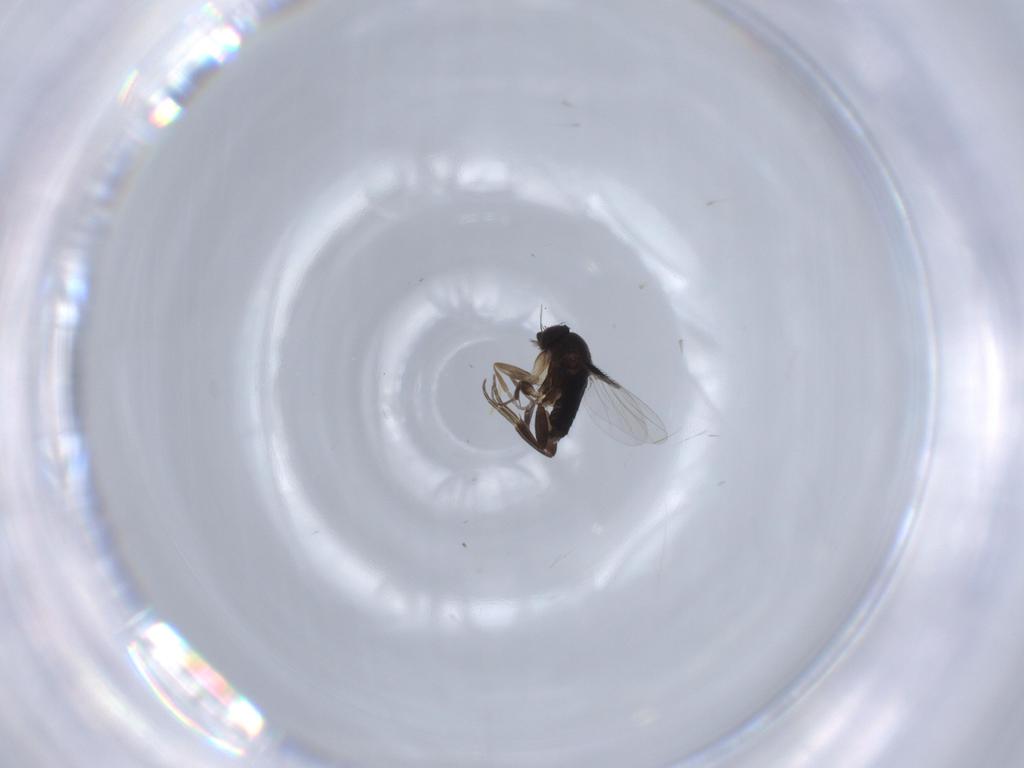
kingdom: Animalia
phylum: Arthropoda
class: Insecta
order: Diptera
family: Phoridae
